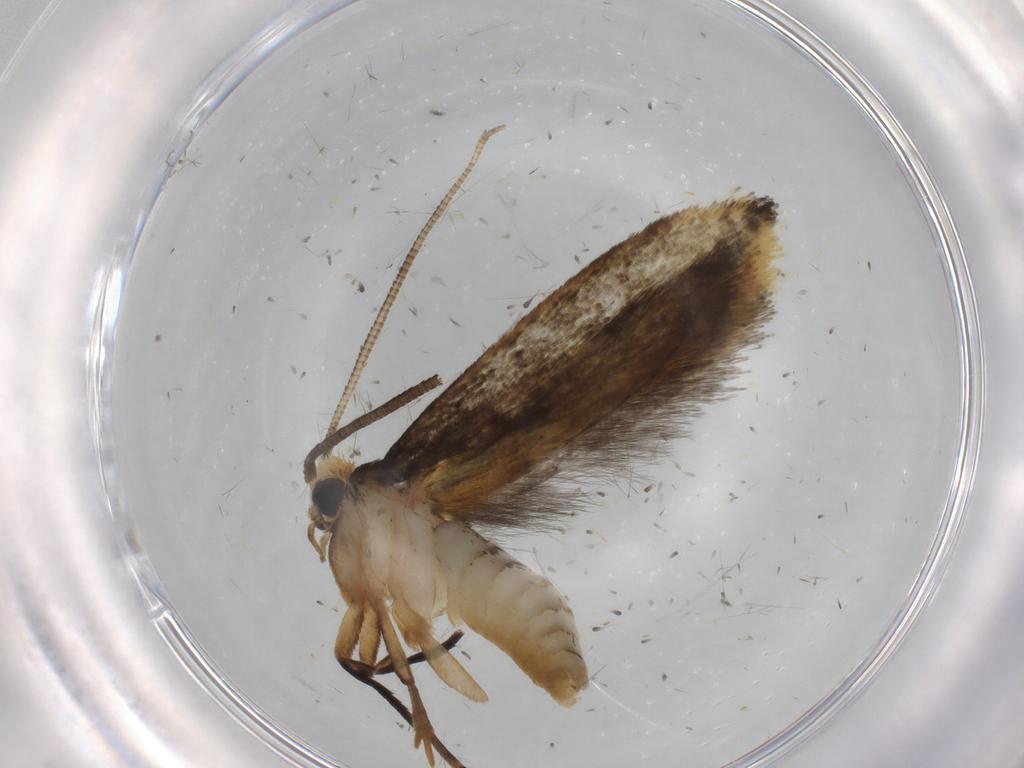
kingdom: Animalia
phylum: Arthropoda
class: Insecta
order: Lepidoptera
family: Tineidae
